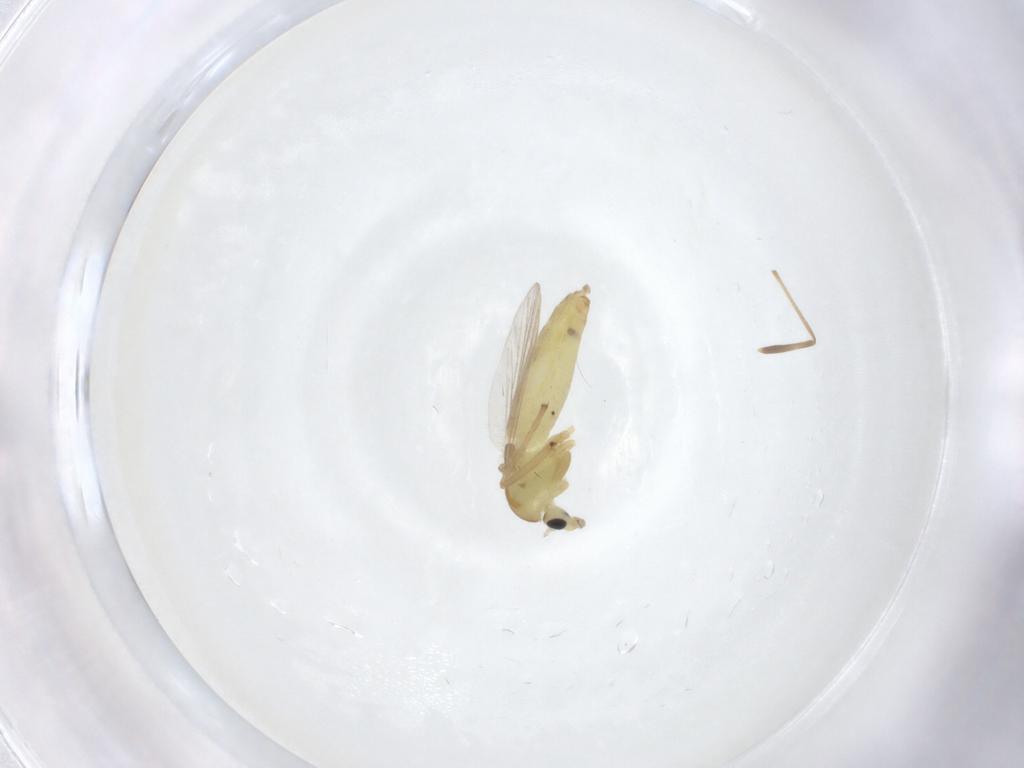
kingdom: Animalia
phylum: Arthropoda
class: Insecta
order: Diptera
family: Chironomidae
